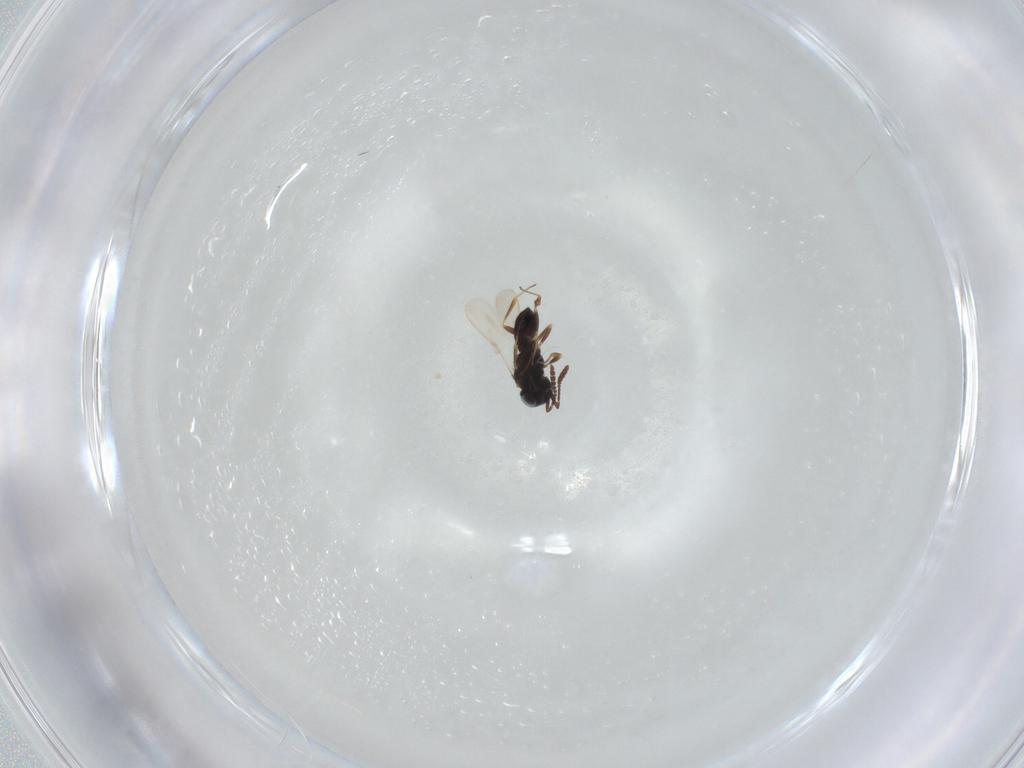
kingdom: Animalia
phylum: Arthropoda
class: Insecta
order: Hymenoptera
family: Scelionidae
